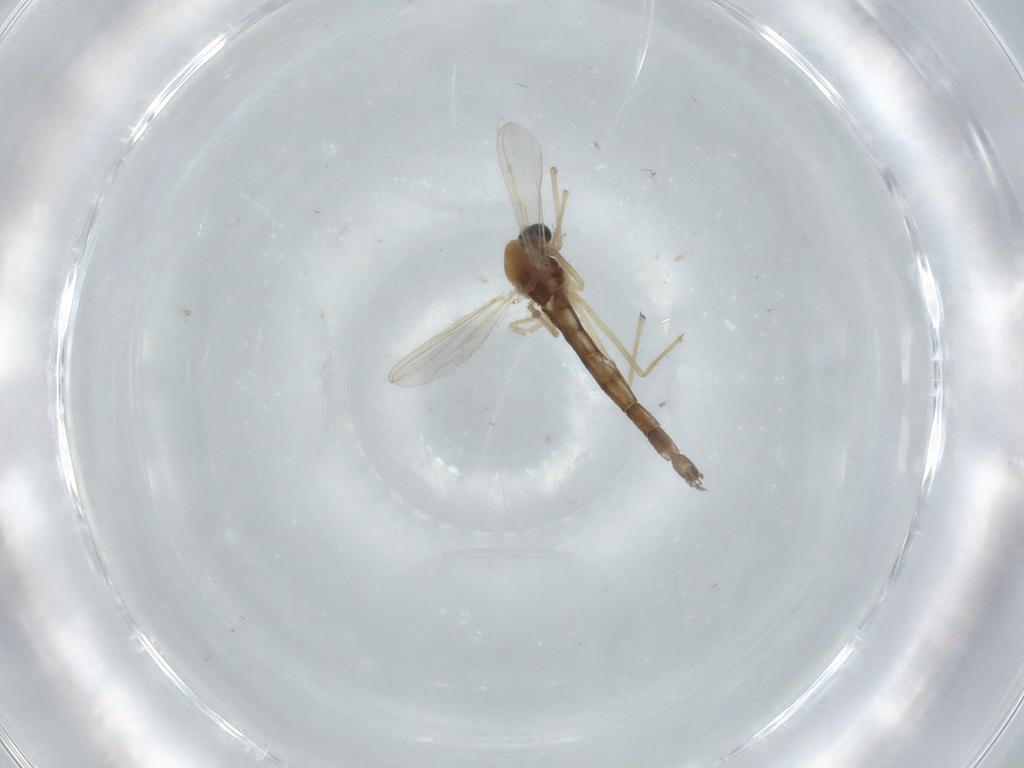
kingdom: Animalia
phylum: Arthropoda
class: Insecta
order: Diptera
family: Chironomidae
